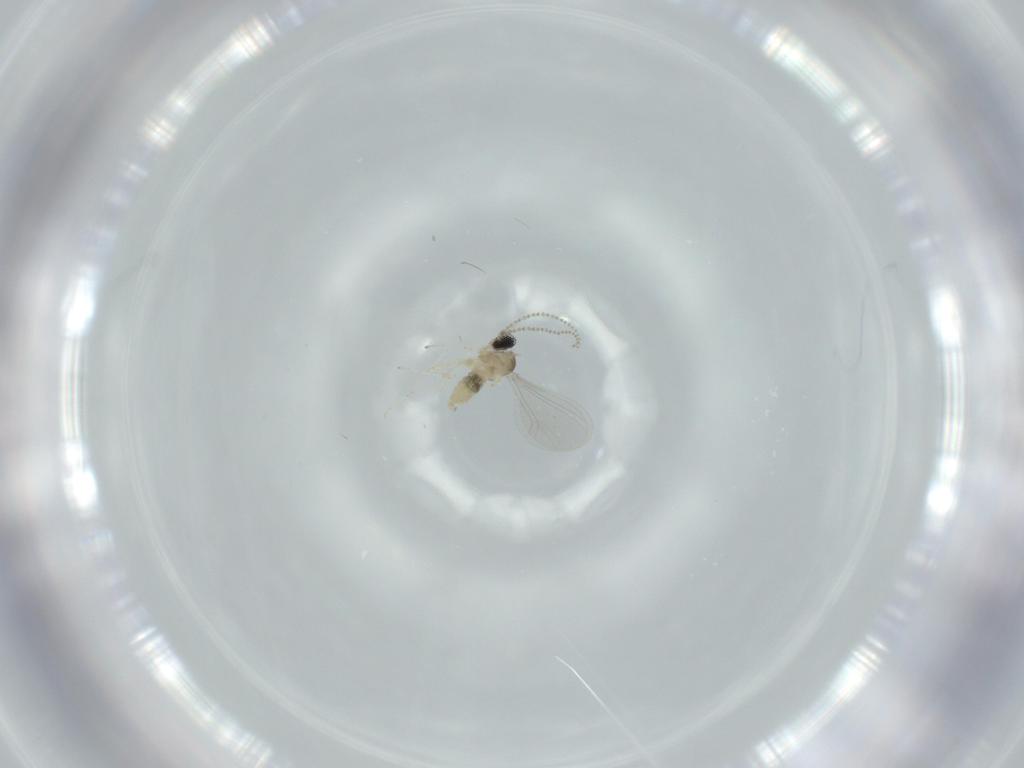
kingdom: Animalia
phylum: Arthropoda
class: Insecta
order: Diptera
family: Cecidomyiidae
